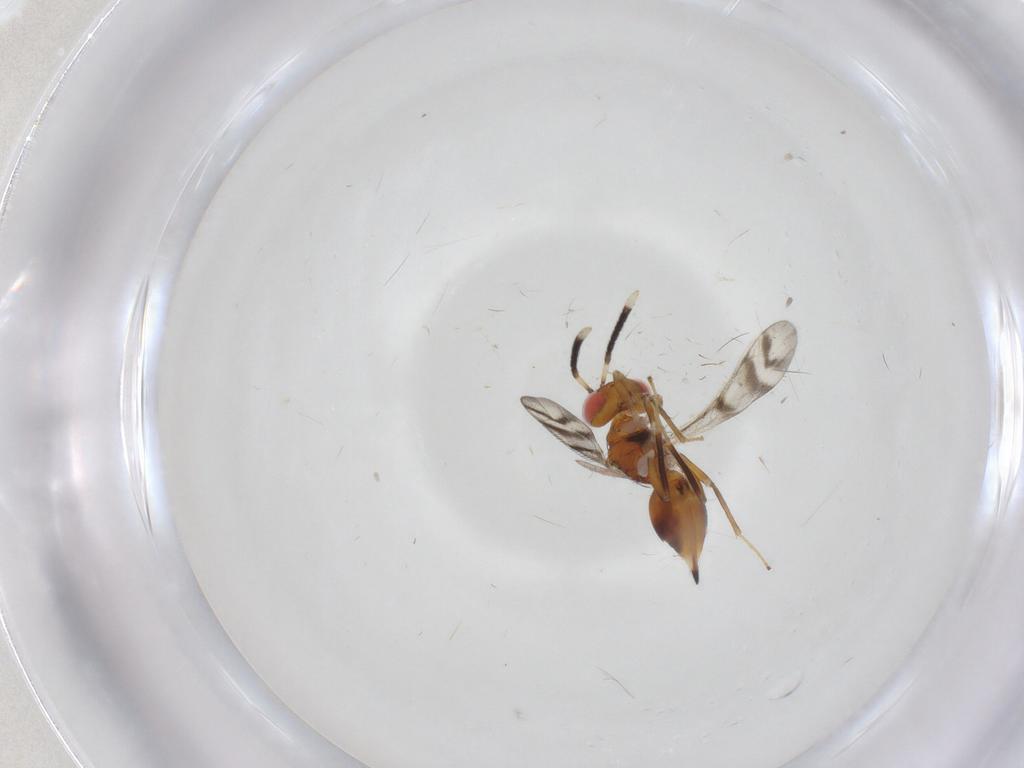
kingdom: Animalia
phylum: Arthropoda
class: Insecta
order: Hymenoptera
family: Diparidae
